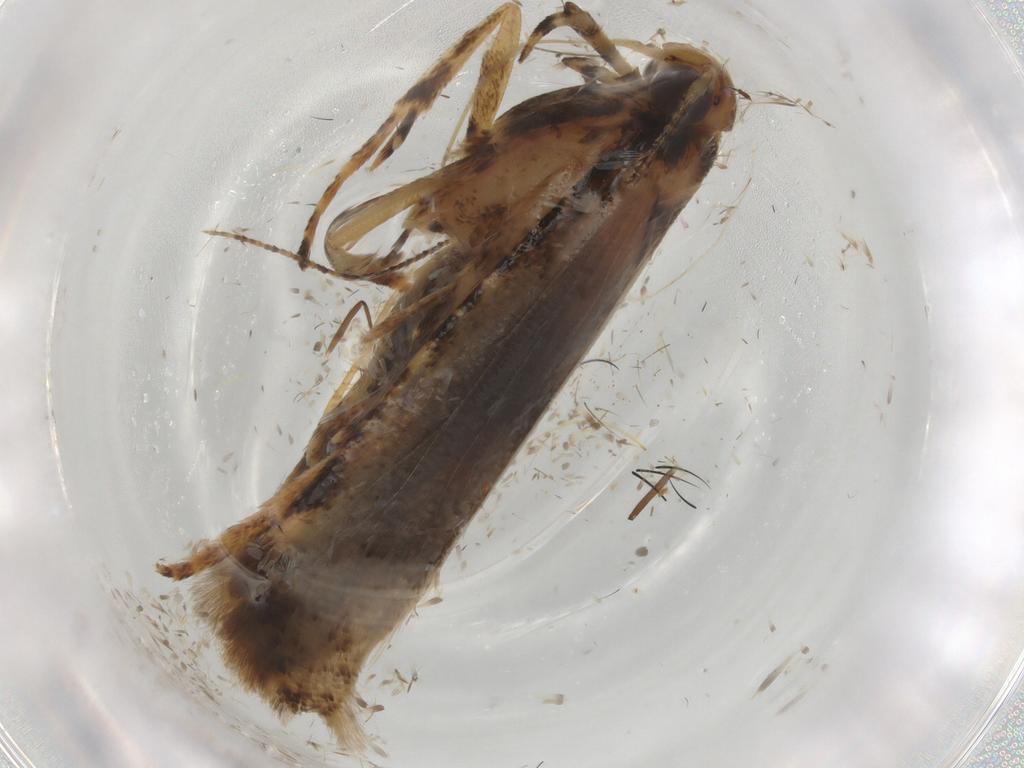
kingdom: Animalia
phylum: Arthropoda
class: Insecta
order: Lepidoptera
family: Gelechiidae
